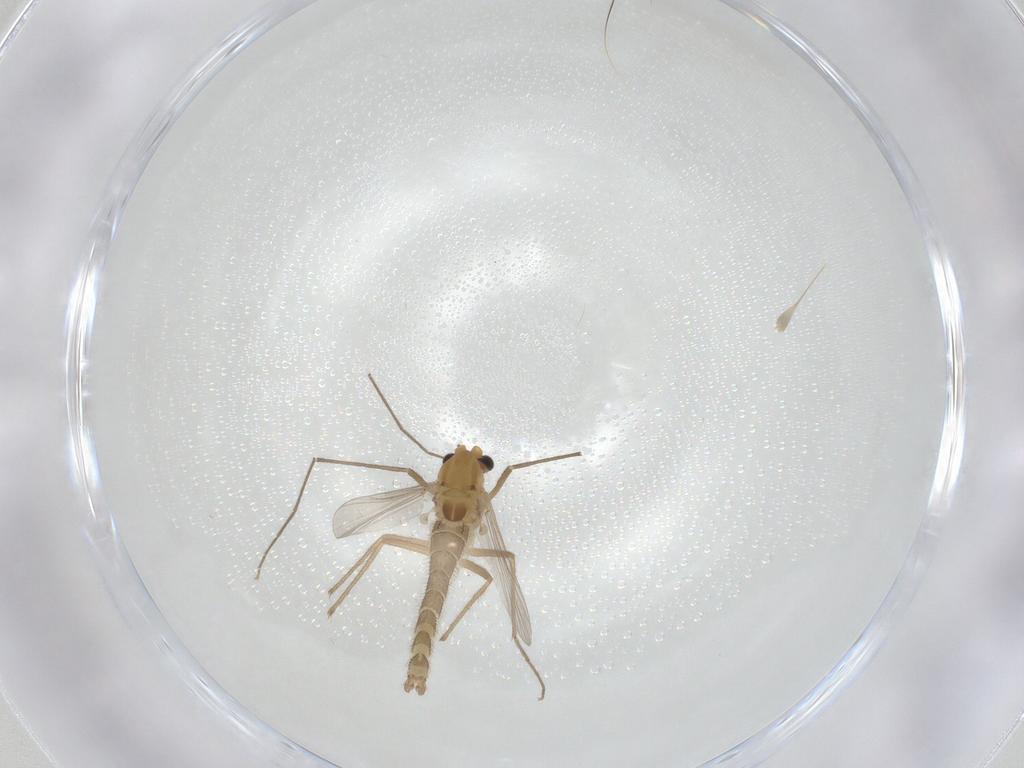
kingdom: Animalia
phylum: Arthropoda
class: Insecta
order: Diptera
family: Chironomidae
